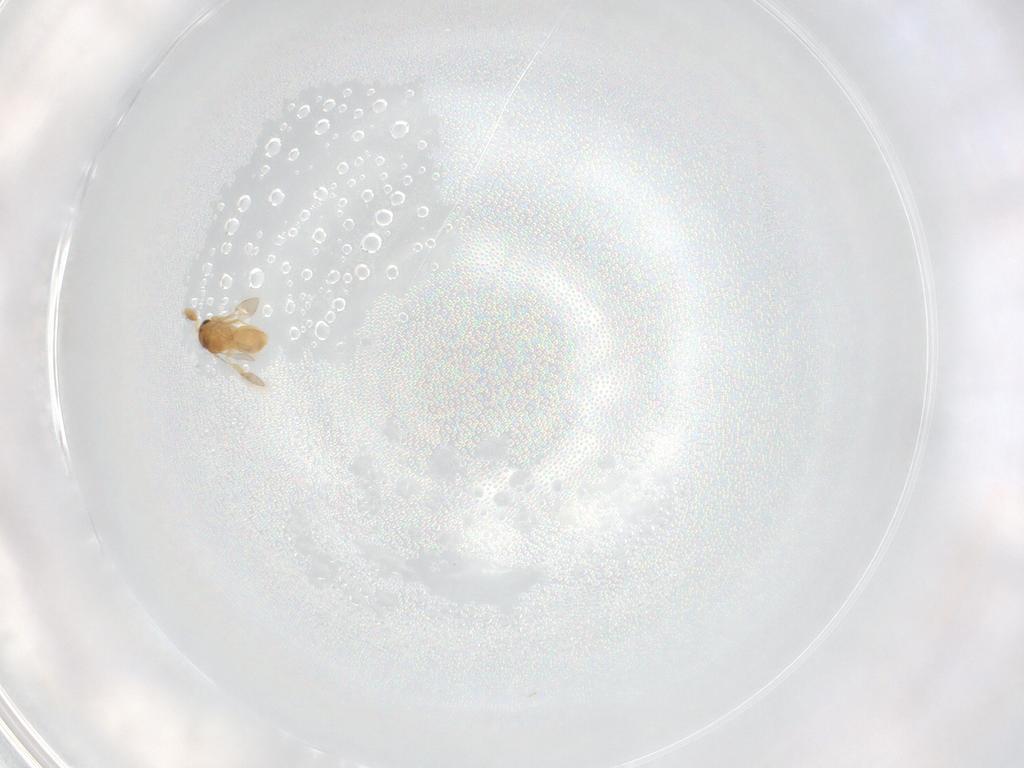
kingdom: Animalia
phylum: Arthropoda
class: Insecta
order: Hymenoptera
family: Scelionidae
